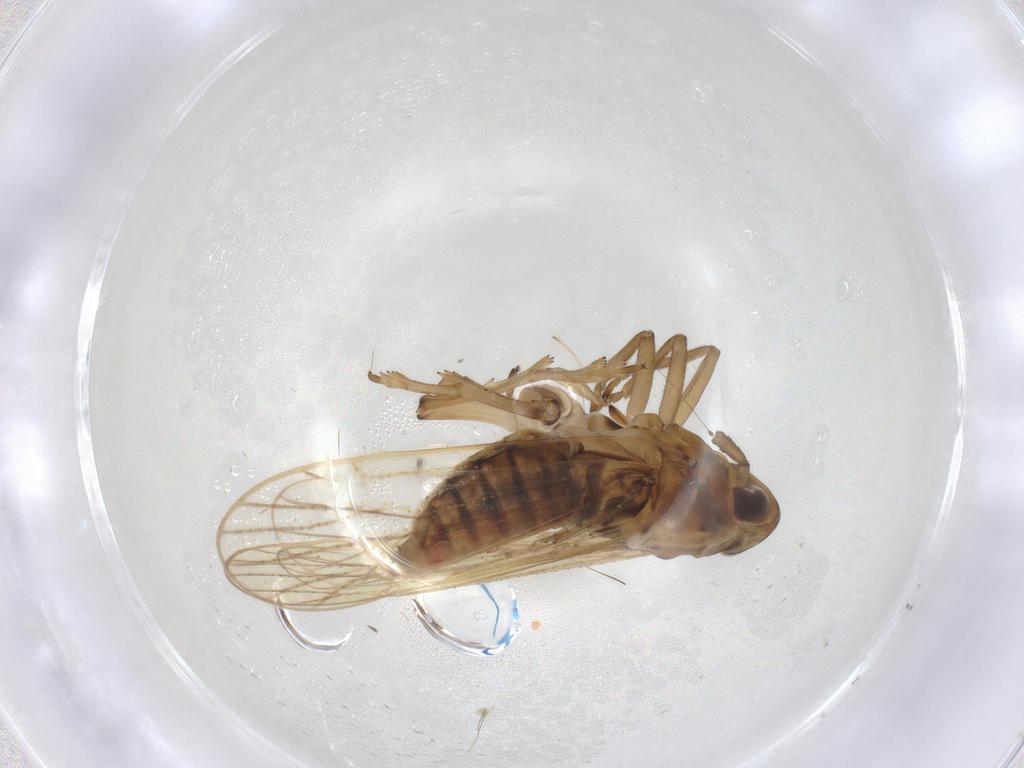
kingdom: Animalia
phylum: Arthropoda
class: Insecta
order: Hemiptera
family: Delphacidae
